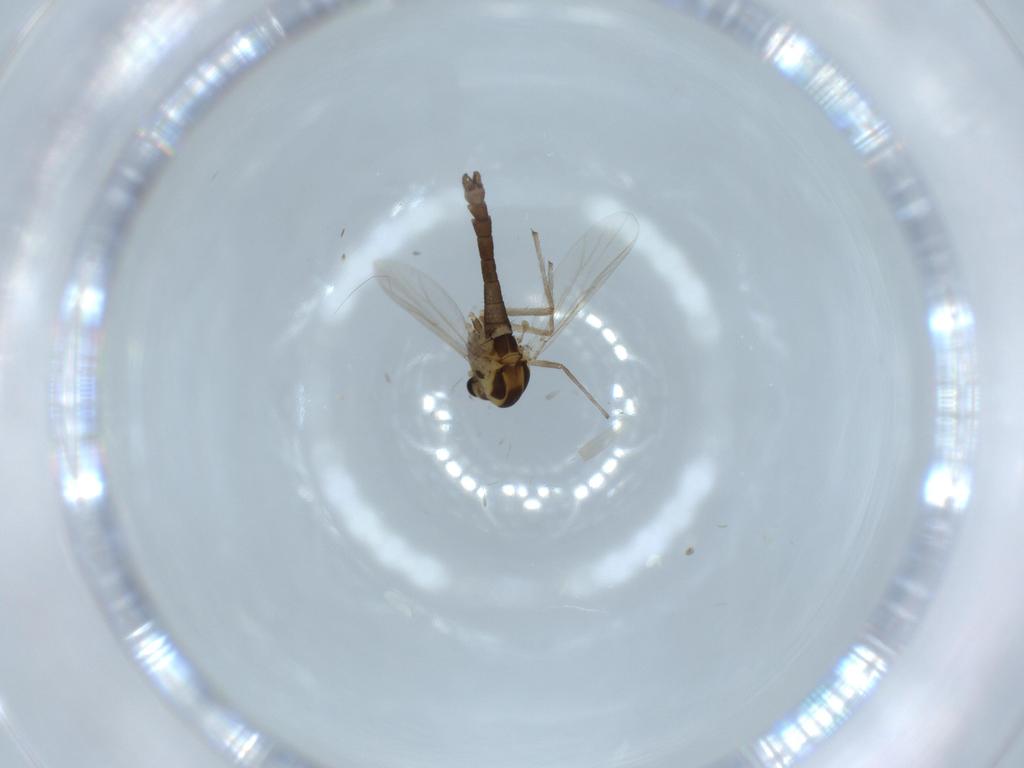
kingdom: Animalia
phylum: Arthropoda
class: Insecta
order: Diptera
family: Chironomidae
